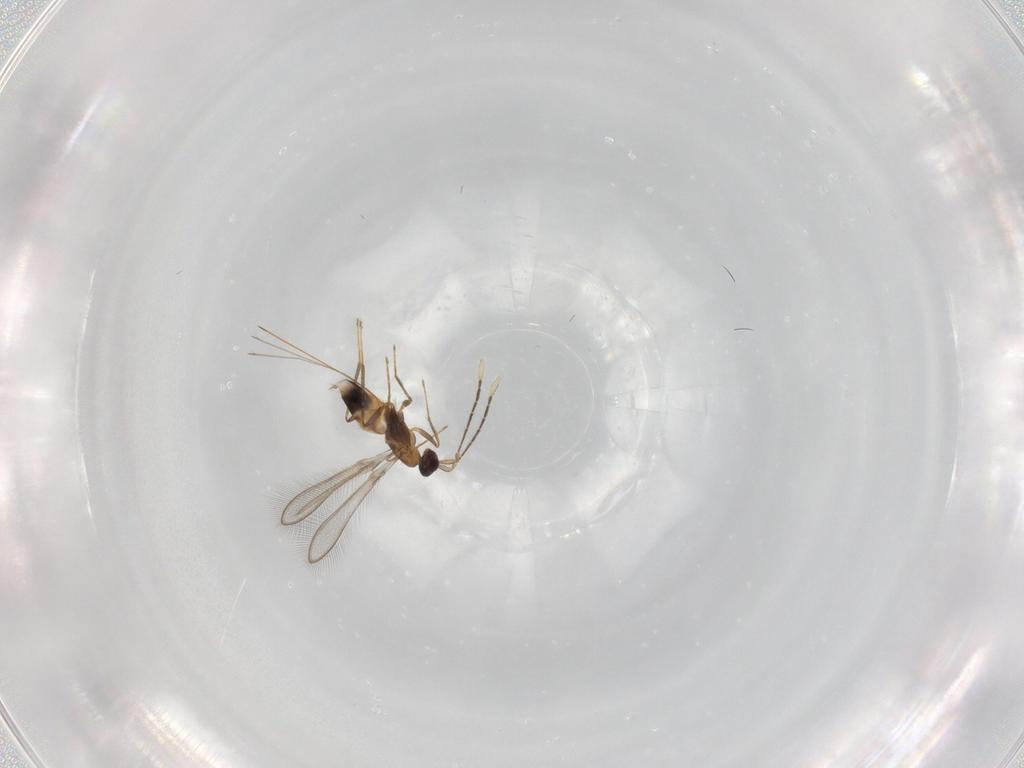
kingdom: Animalia
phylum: Arthropoda
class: Insecta
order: Hymenoptera
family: Mymaridae
